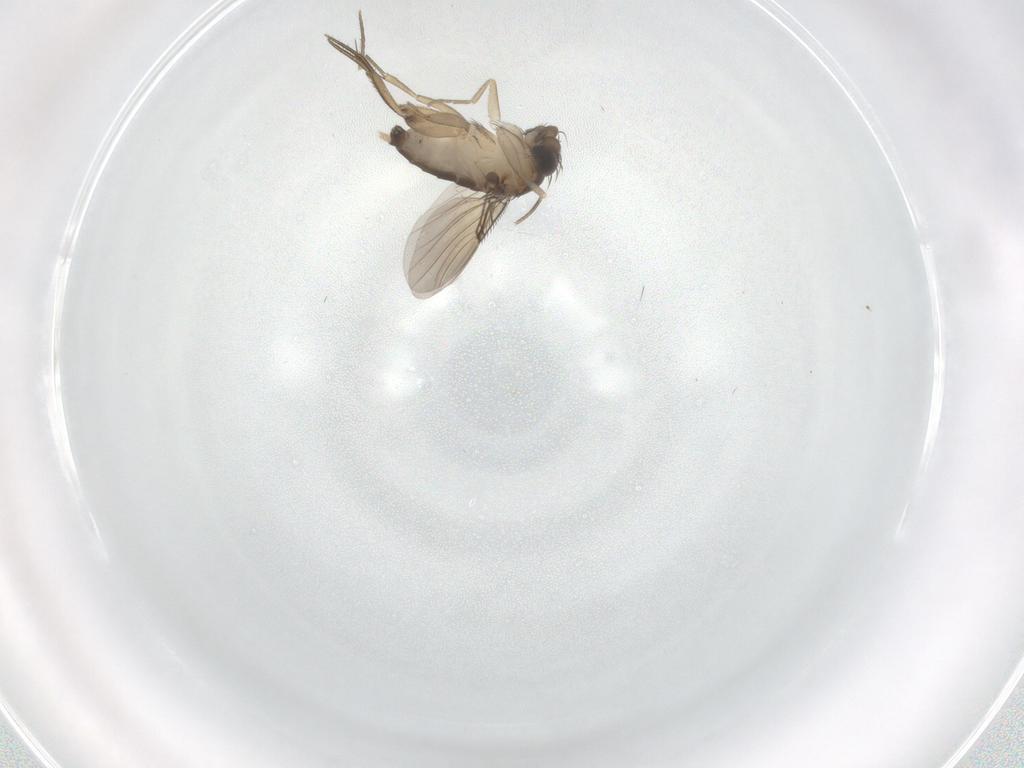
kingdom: Animalia
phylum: Arthropoda
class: Insecta
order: Diptera
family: Phoridae
